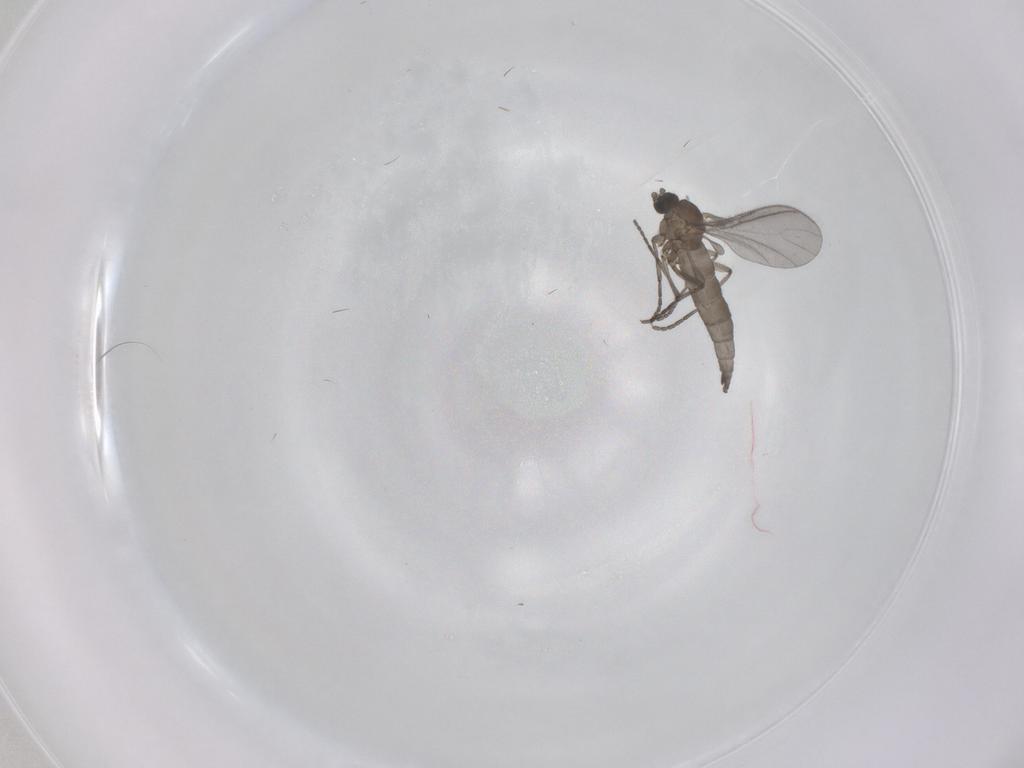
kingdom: Animalia
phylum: Arthropoda
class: Insecta
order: Diptera
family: Sciaridae
